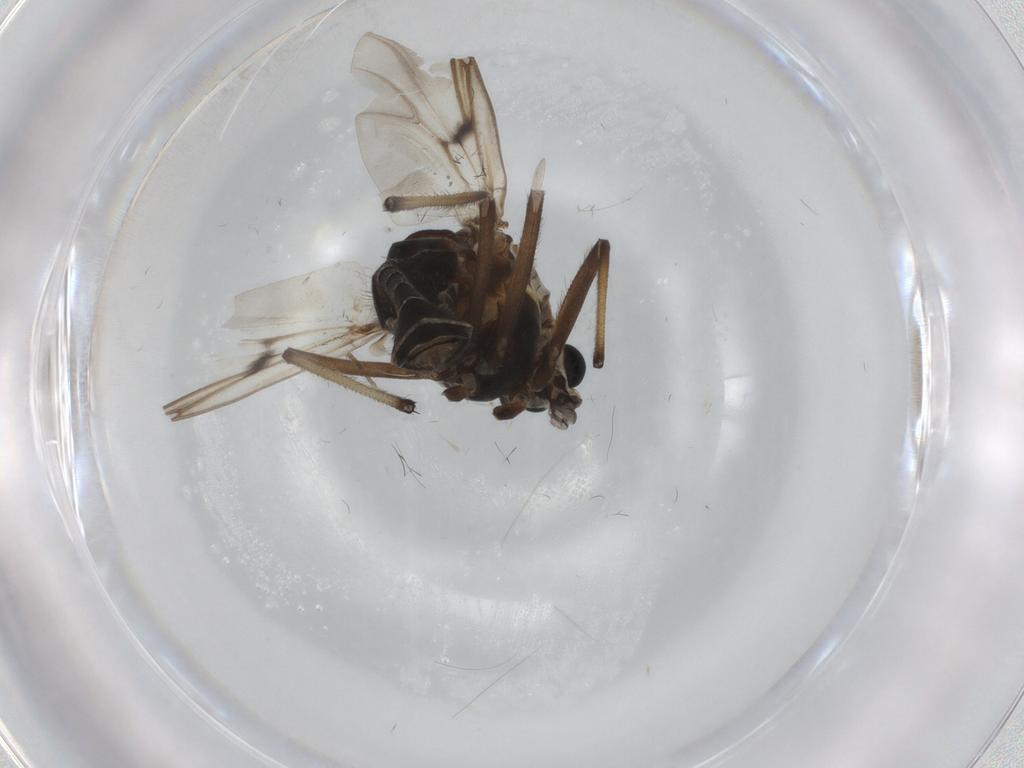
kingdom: Animalia
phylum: Arthropoda
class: Insecta
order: Diptera
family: Chironomidae
